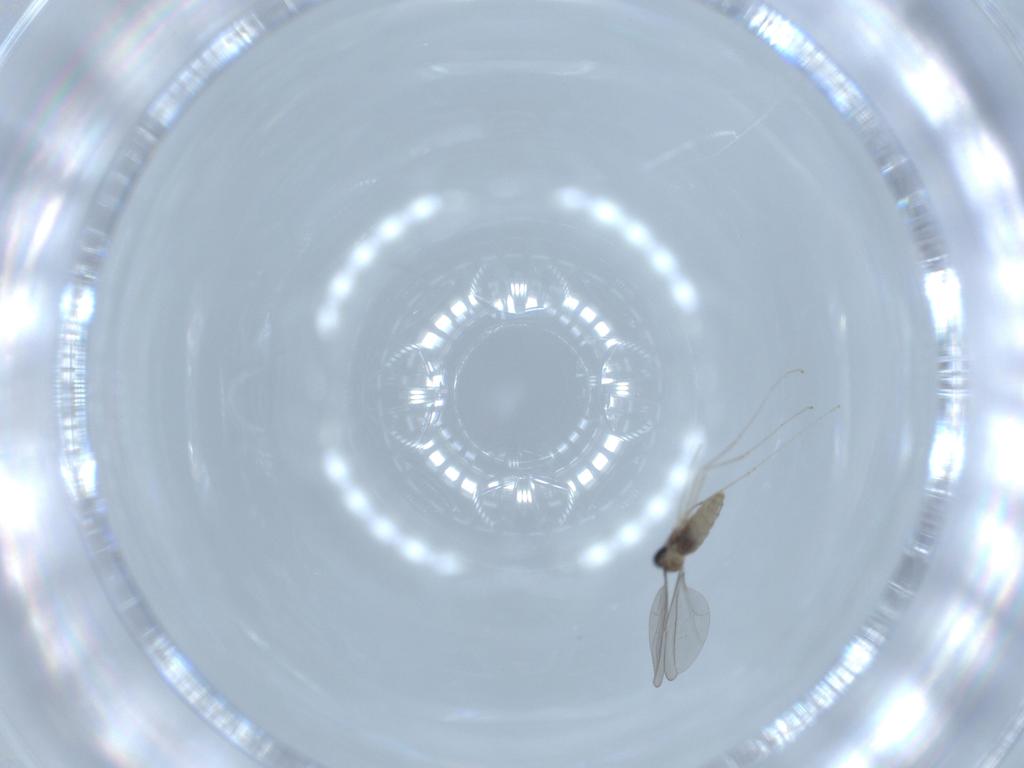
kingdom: Animalia
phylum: Arthropoda
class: Insecta
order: Diptera
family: Cecidomyiidae
